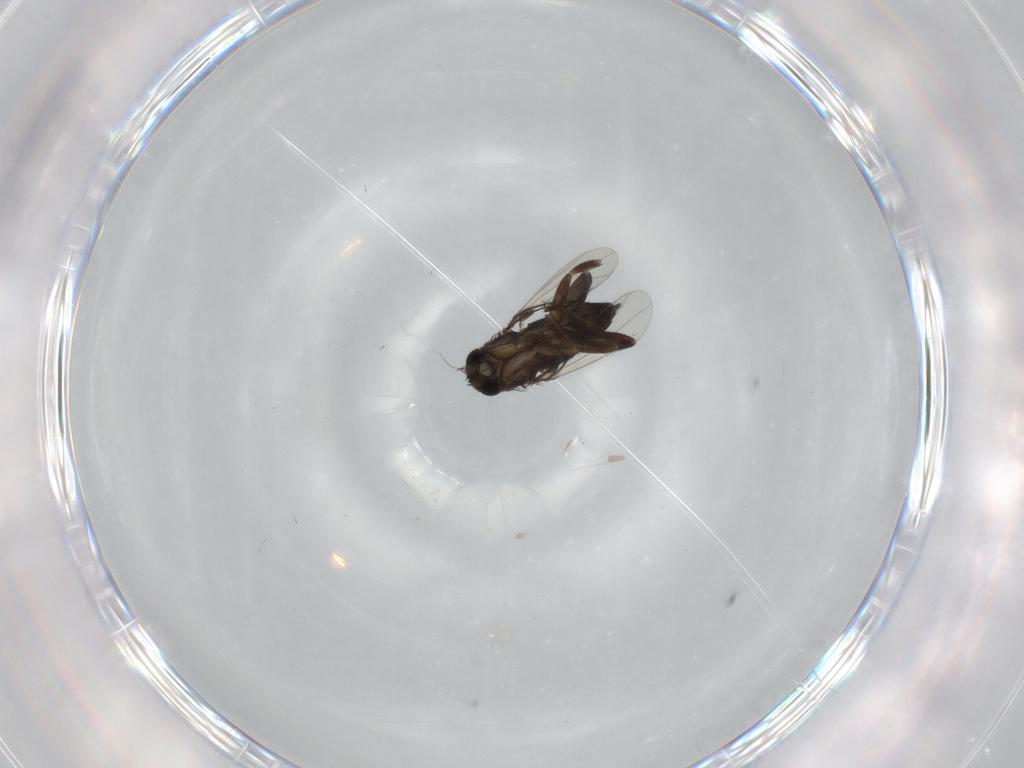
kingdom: Animalia
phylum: Arthropoda
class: Insecta
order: Diptera
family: Phoridae
